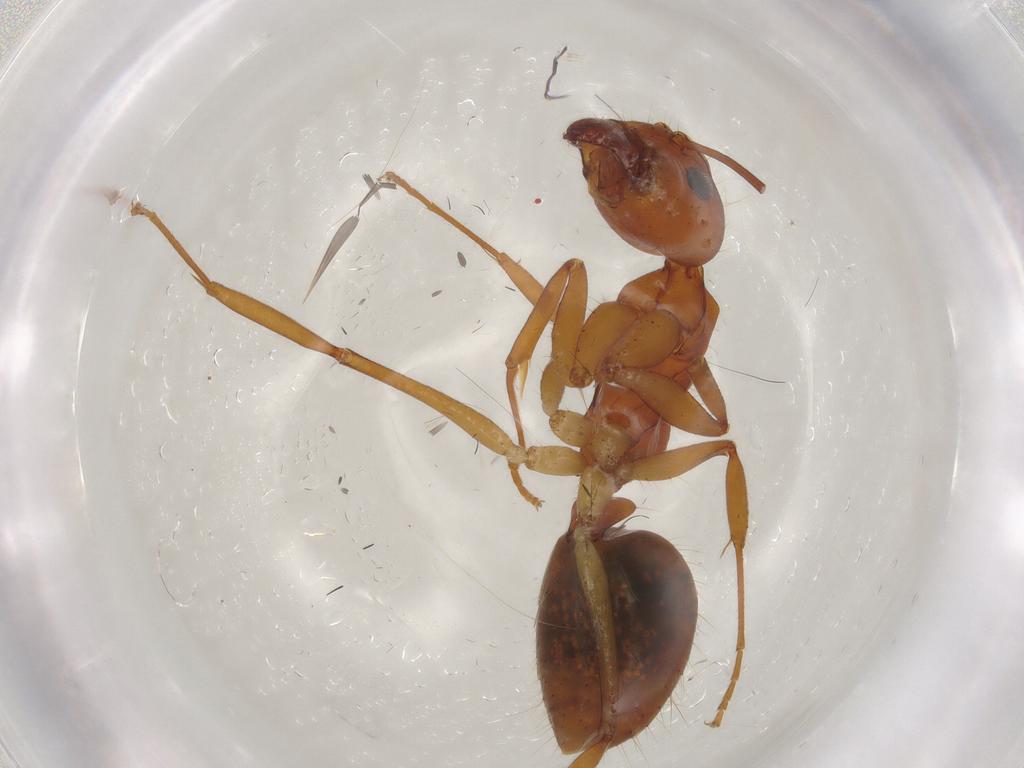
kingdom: Animalia
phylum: Arthropoda
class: Insecta
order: Hymenoptera
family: Formicidae
